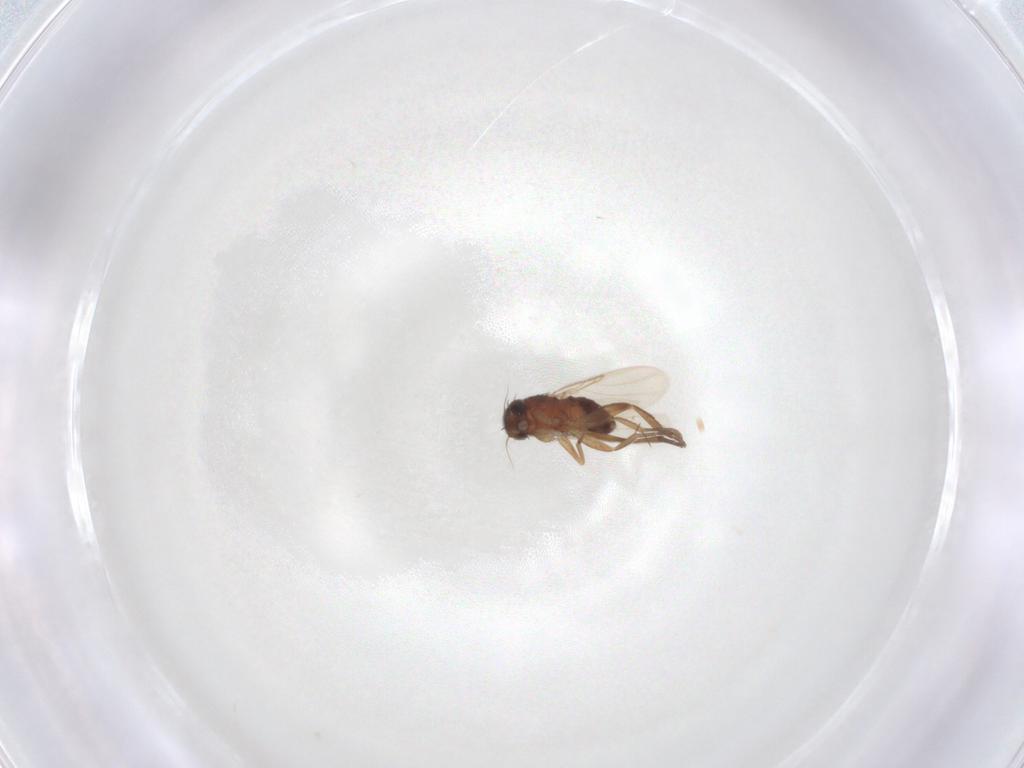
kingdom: Animalia
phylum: Arthropoda
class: Insecta
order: Diptera
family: Phoridae
